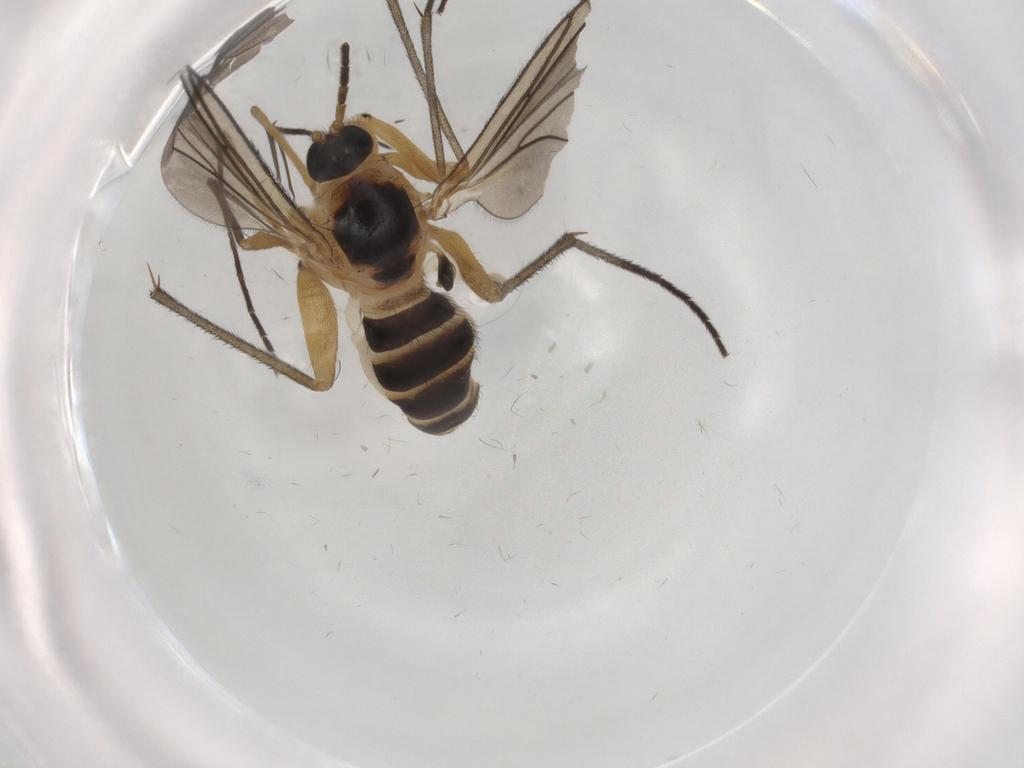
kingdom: Animalia
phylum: Arthropoda
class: Insecta
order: Diptera
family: Sciaridae
